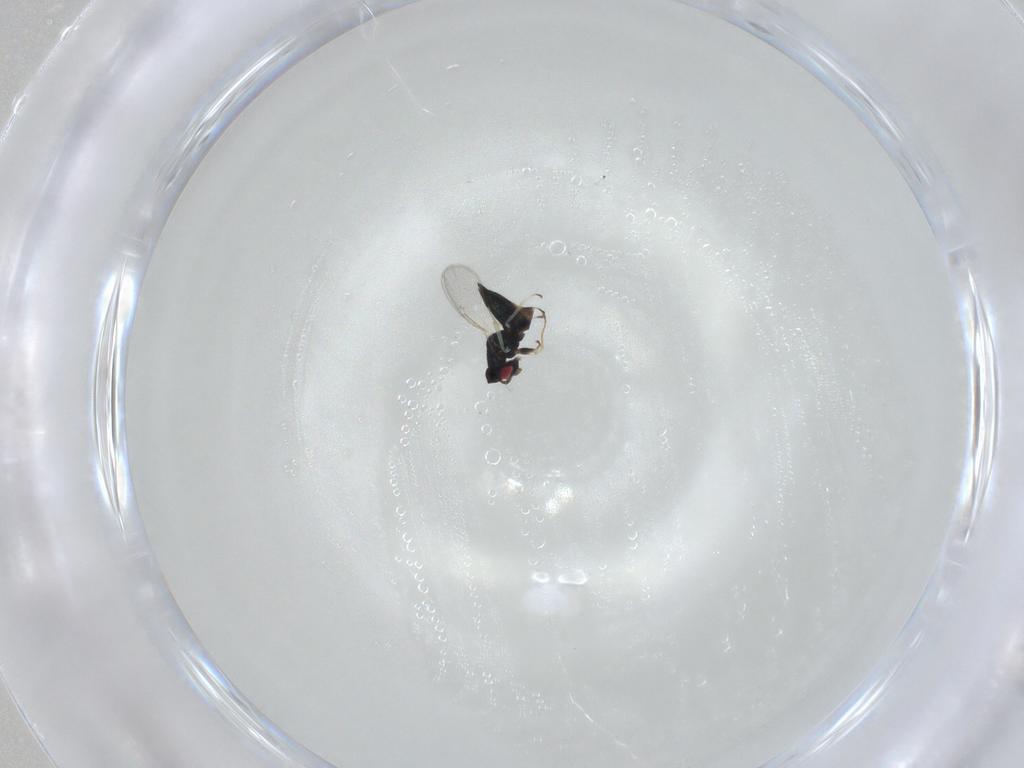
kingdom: Animalia
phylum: Arthropoda
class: Insecta
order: Hymenoptera
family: Eulophidae
